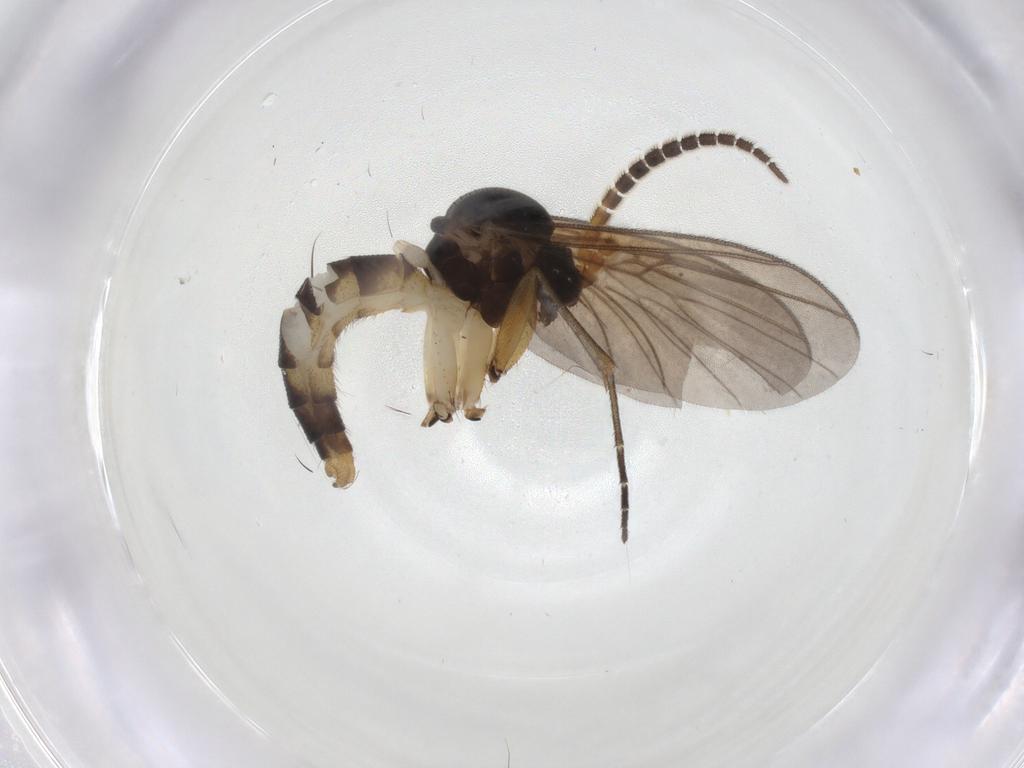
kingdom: Animalia
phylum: Arthropoda
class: Insecta
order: Diptera
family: Cecidomyiidae
